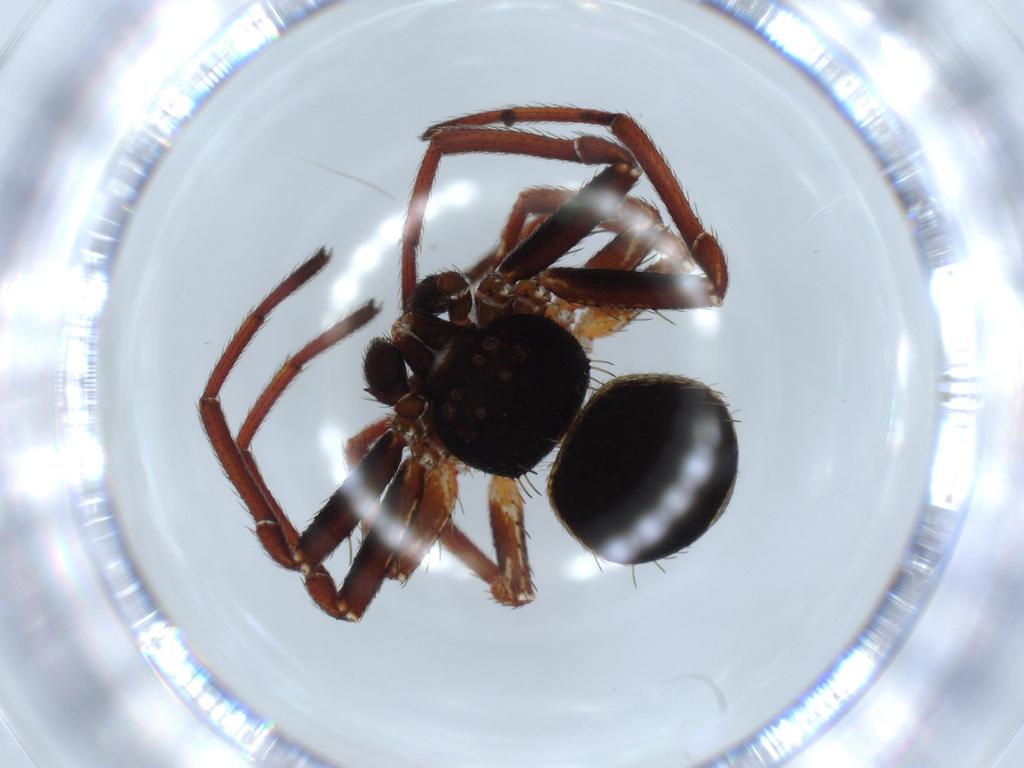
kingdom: Animalia
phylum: Arthropoda
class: Arachnida
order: Araneae
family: Thomisidae
